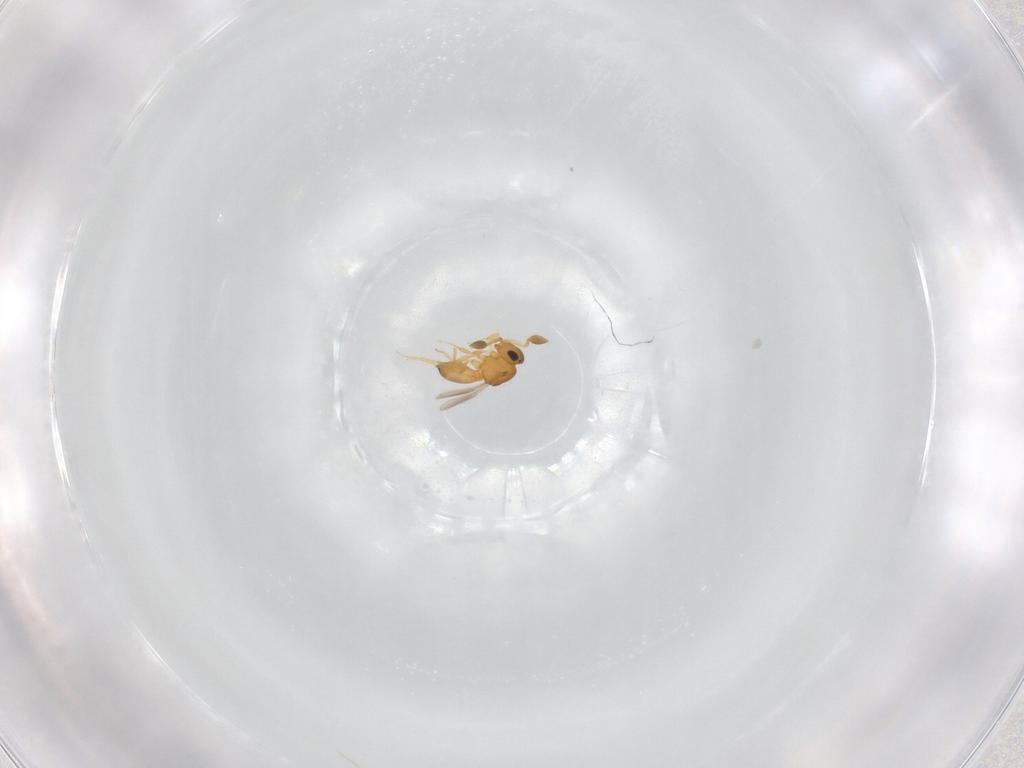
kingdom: Animalia
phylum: Arthropoda
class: Insecta
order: Hymenoptera
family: Scelionidae
